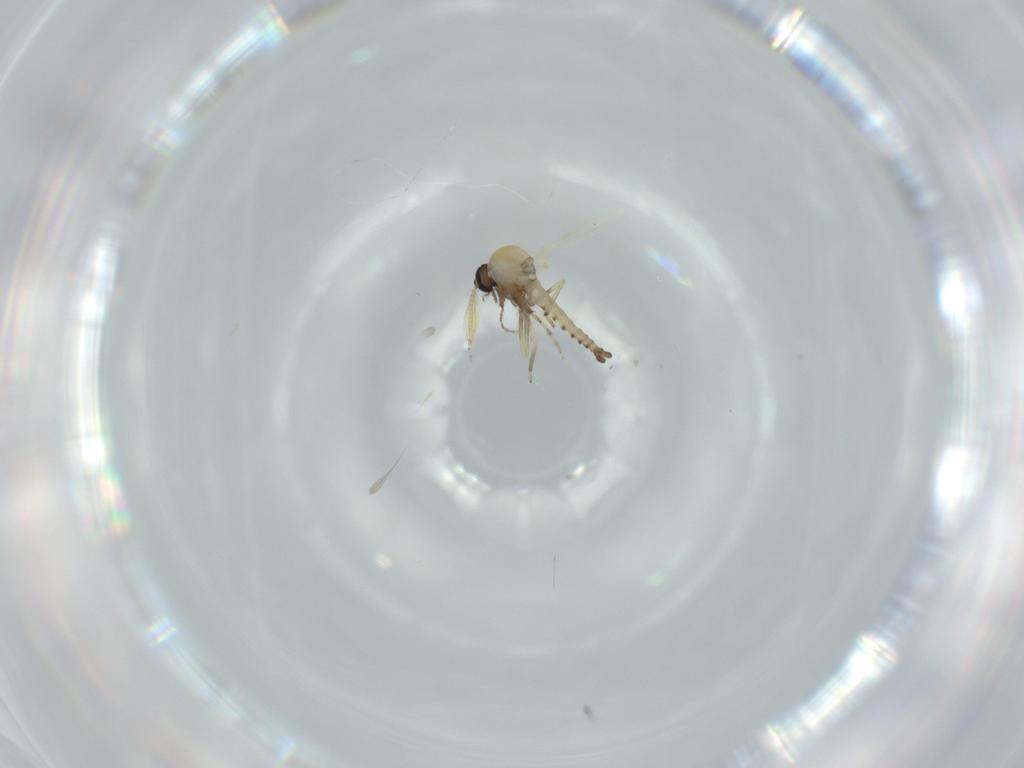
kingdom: Animalia
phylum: Arthropoda
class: Insecta
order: Diptera
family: Ceratopogonidae
